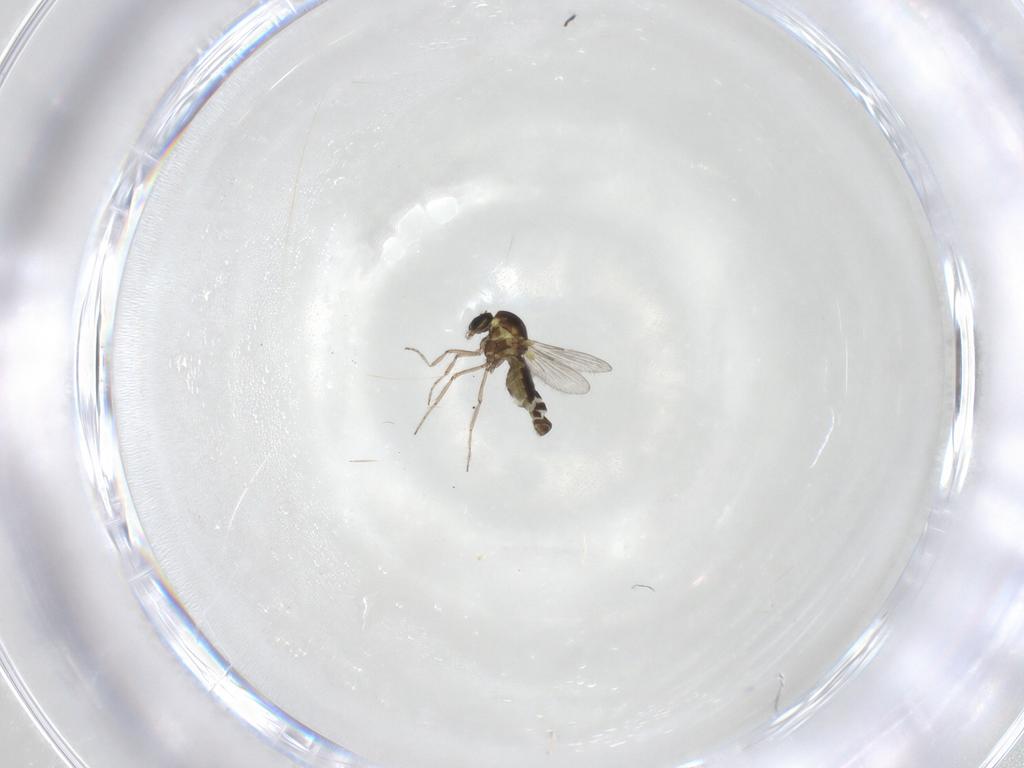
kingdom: Animalia
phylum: Arthropoda
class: Insecta
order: Diptera
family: Ceratopogonidae
